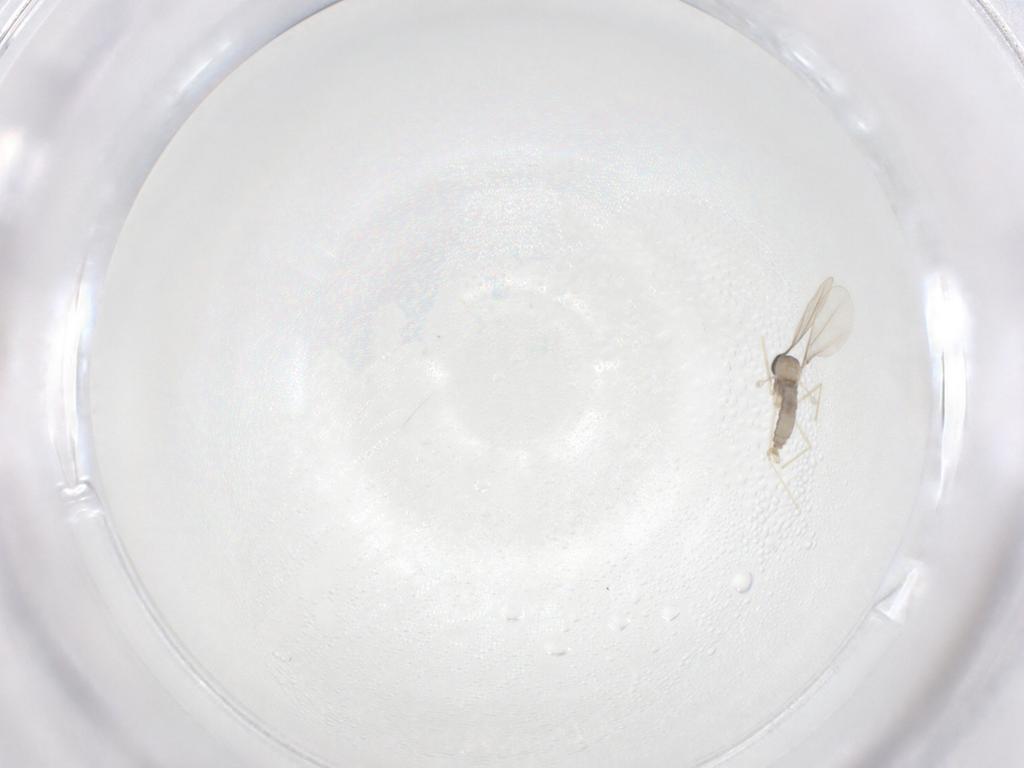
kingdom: Animalia
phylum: Arthropoda
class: Insecta
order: Diptera
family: Cecidomyiidae
